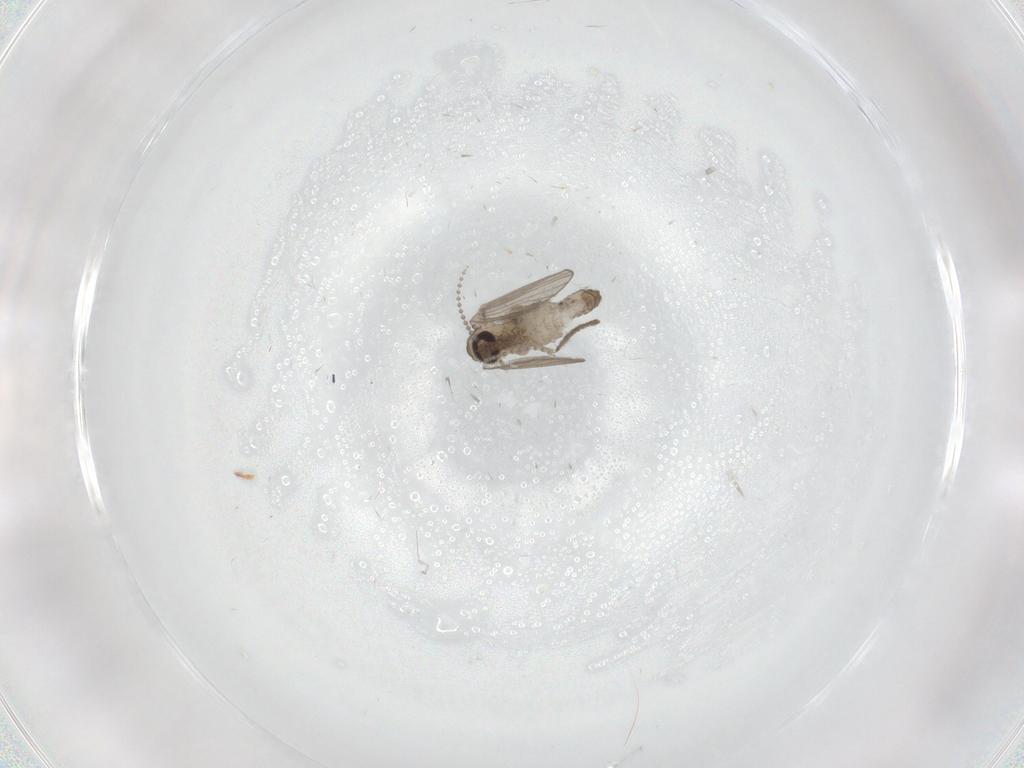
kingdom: Animalia
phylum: Arthropoda
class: Insecta
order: Diptera
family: Psychodidae
